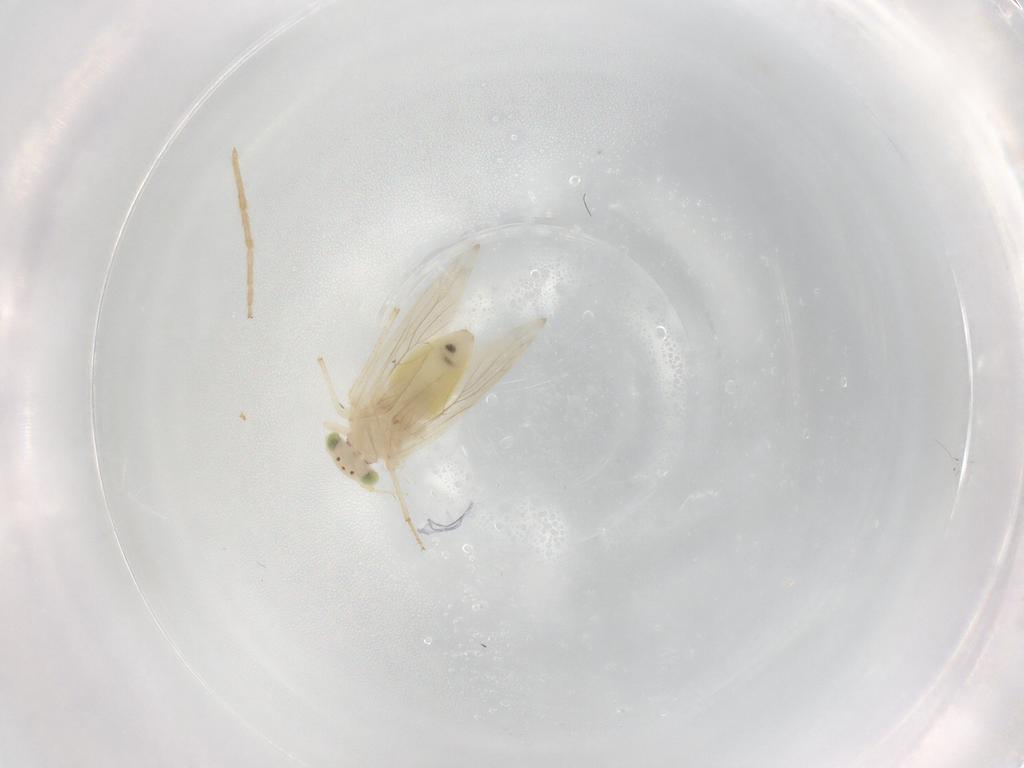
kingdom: Animalia
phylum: Arthropoda
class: Insecta
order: Psocodea
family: Lepidopsocidae
